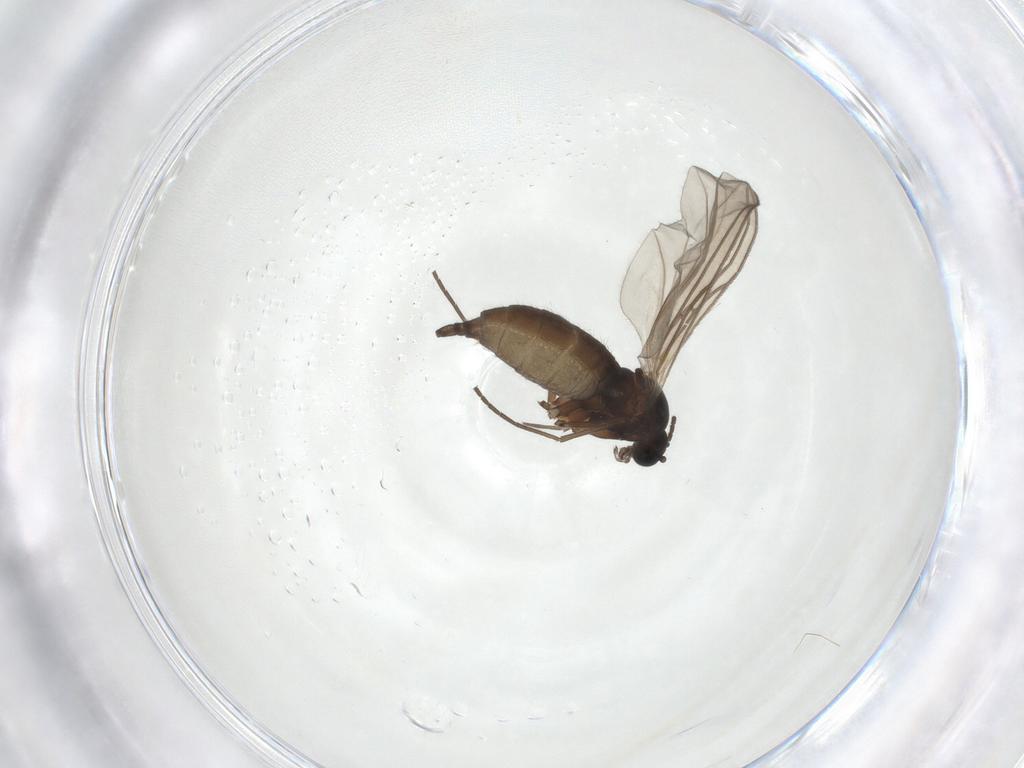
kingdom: Animalia
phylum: Arthropoda
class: Insecta
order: Diptera
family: Sciaridae
